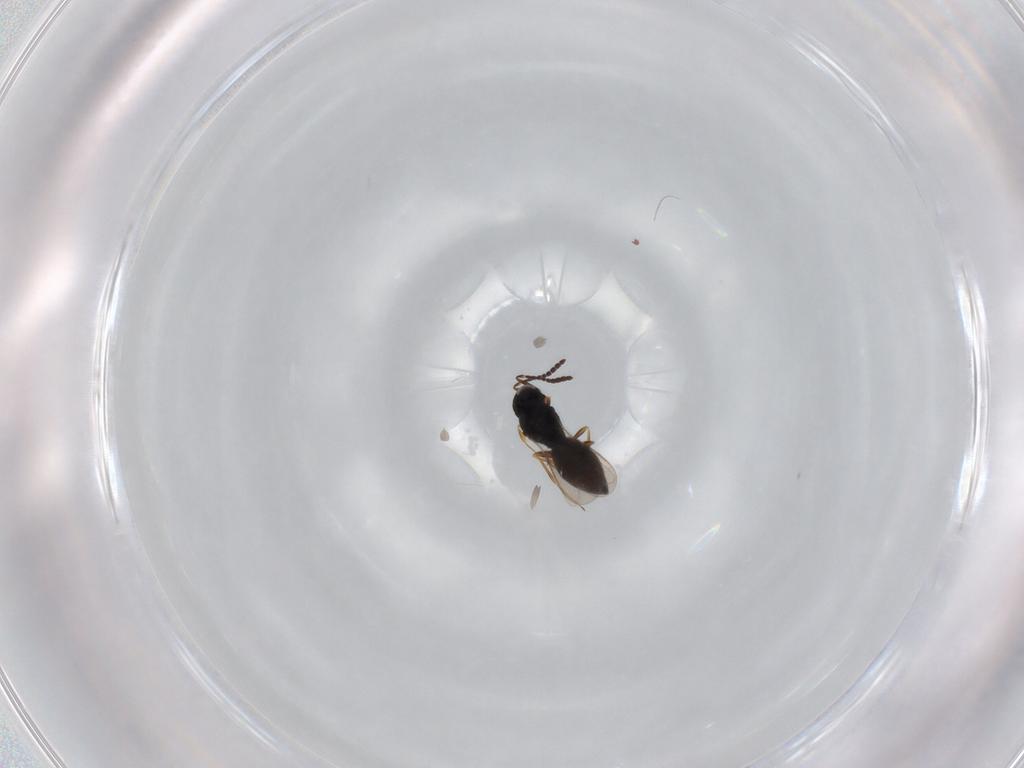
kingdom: Animalia
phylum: Arthropoda
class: Insecta
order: Hymenoptera
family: Scelionidae
